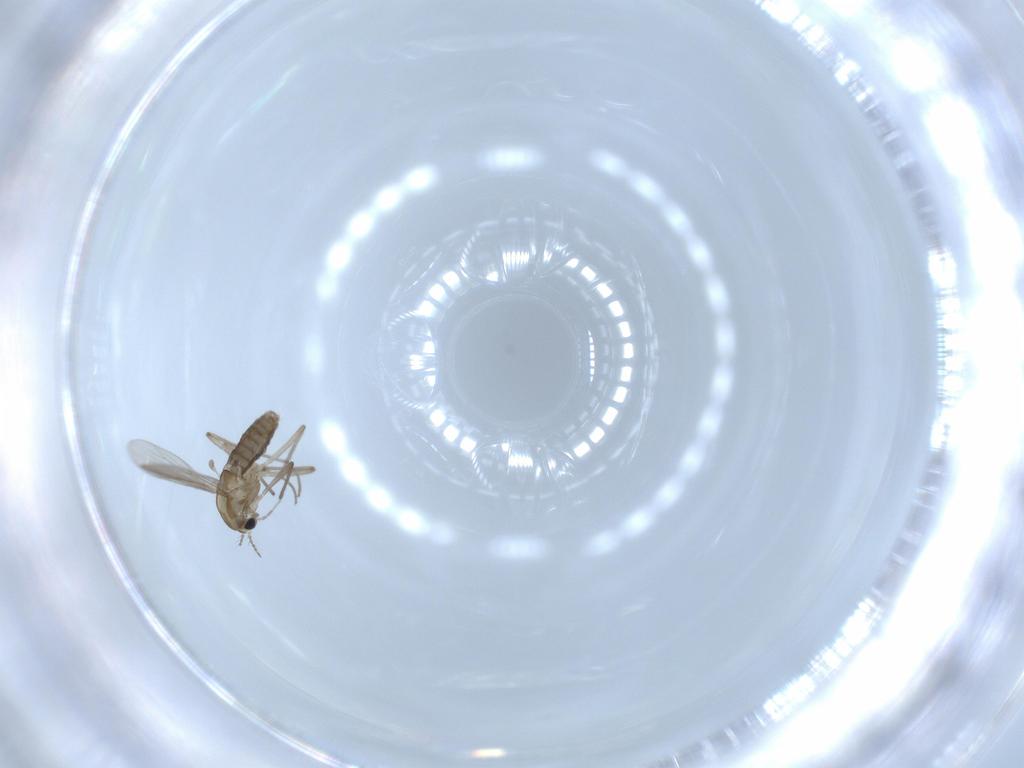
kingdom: Animalia
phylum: Arthropoda
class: Insecta
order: Diptera
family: Chironomidae
